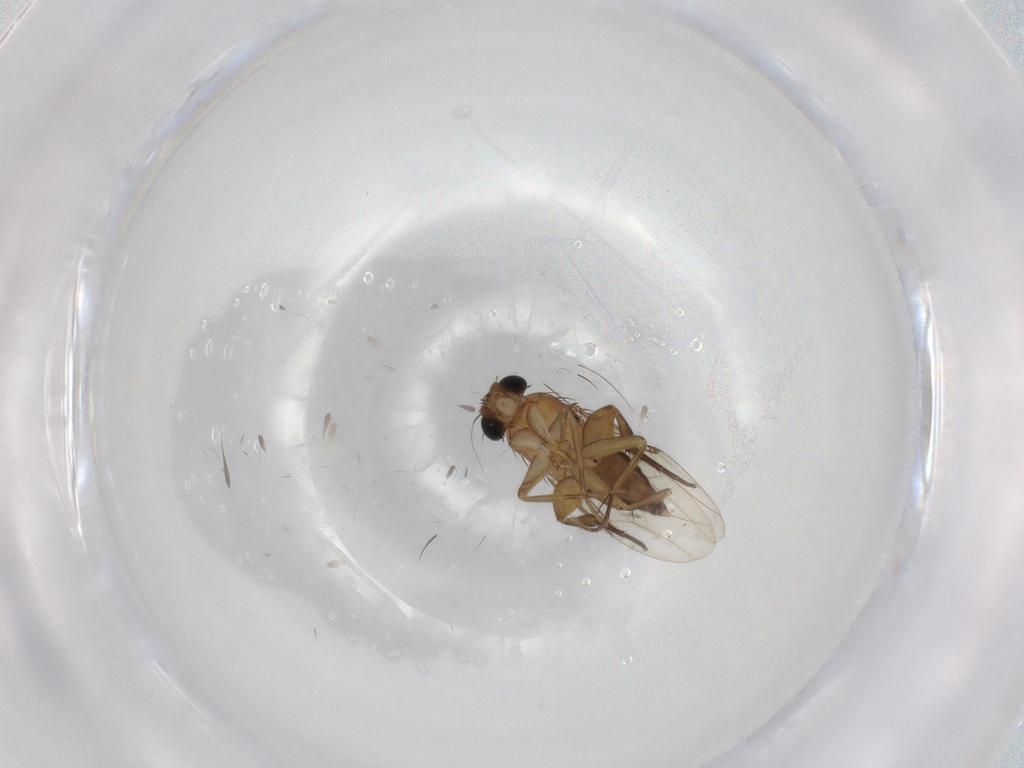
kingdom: Animalia
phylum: Arthropoda
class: Insecta
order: Diptera
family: Phoridae
